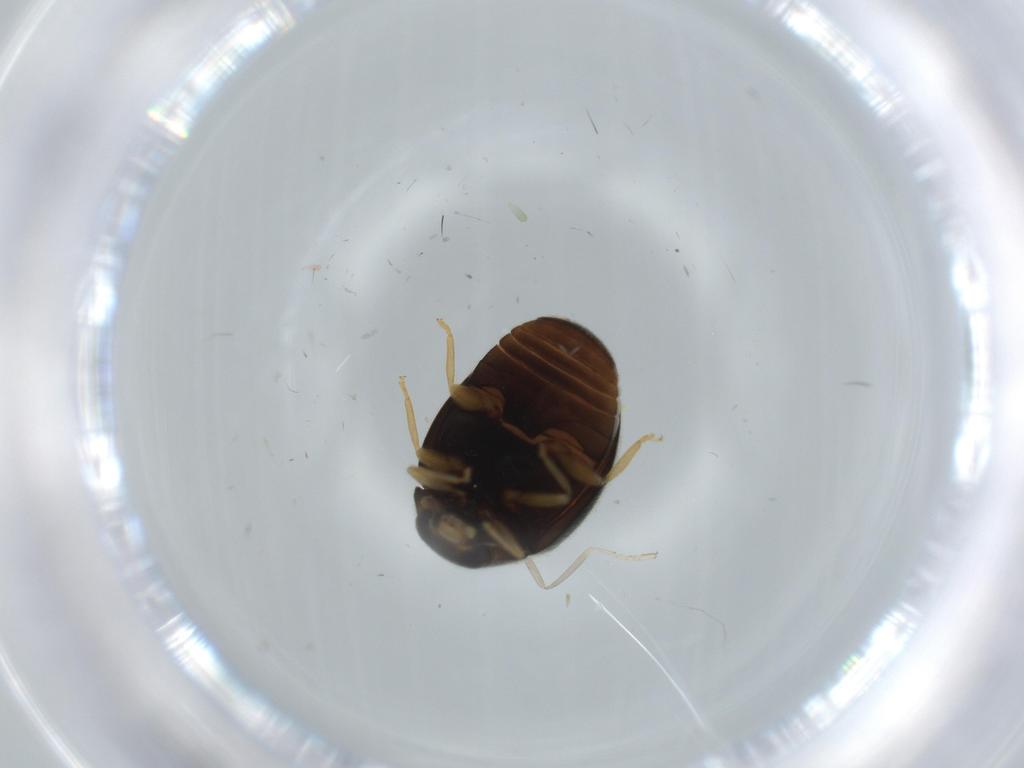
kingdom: Animalia
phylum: Arthropoda
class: Insecta
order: Coleoptera
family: Coccinellidae
